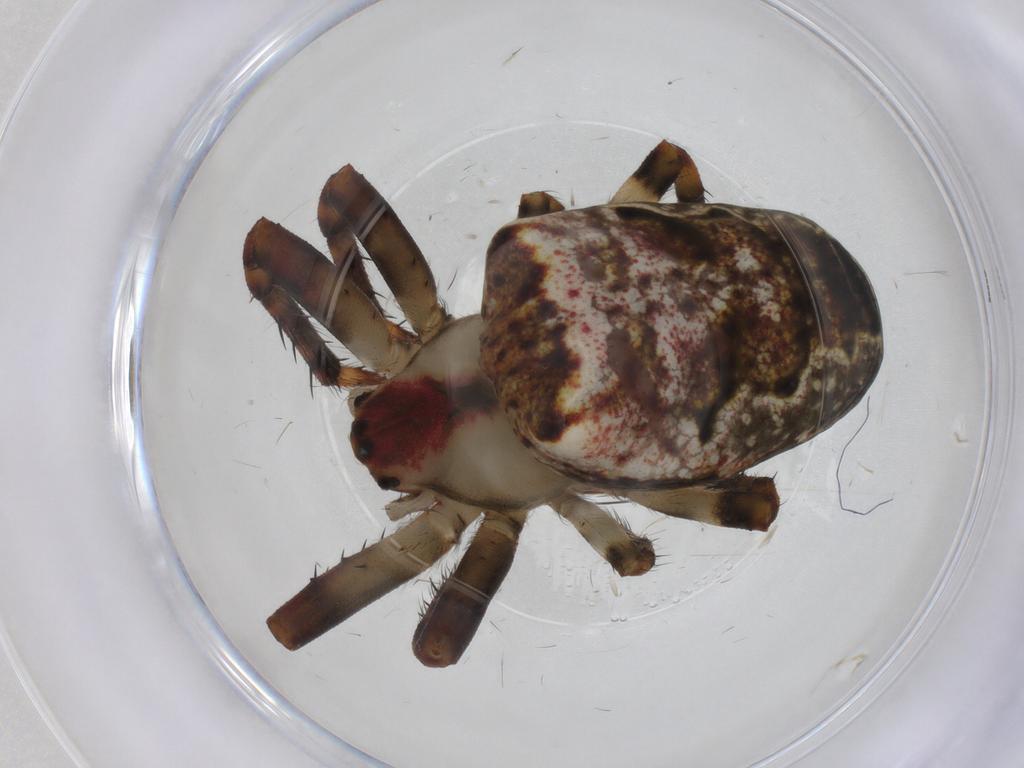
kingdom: Animalia
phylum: Arthropoda
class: Arachnida
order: Araneae
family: Araneidae
